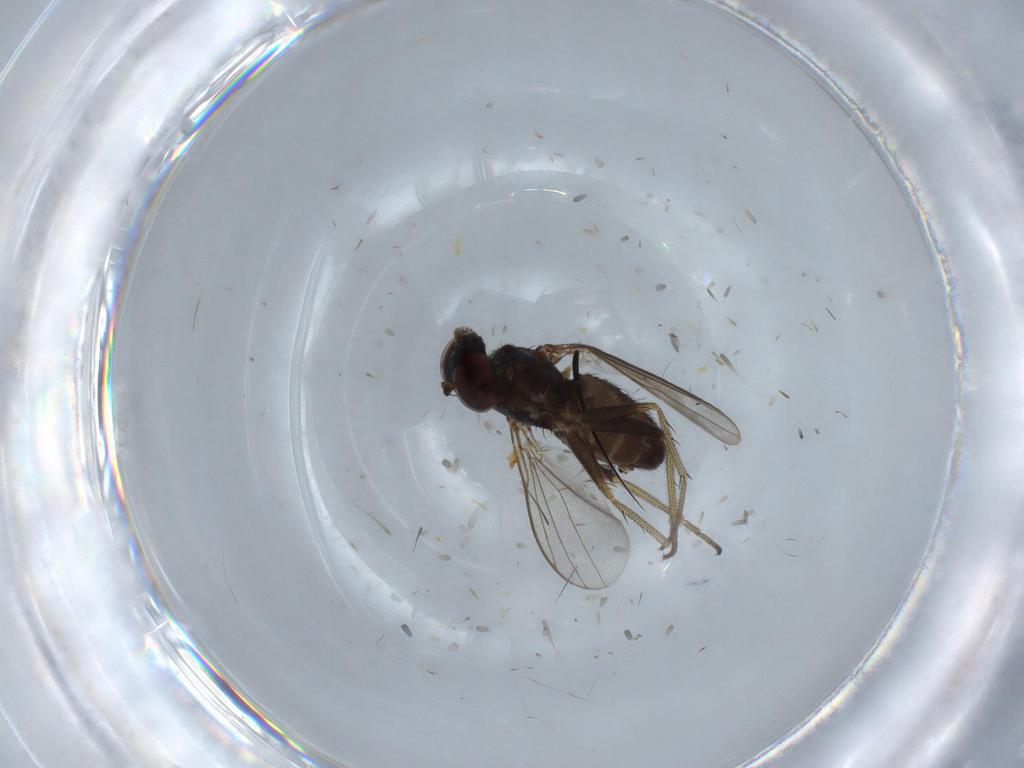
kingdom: Animalia
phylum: Arthropoda
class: Insecta
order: Diptera
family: Dolichopodidae
